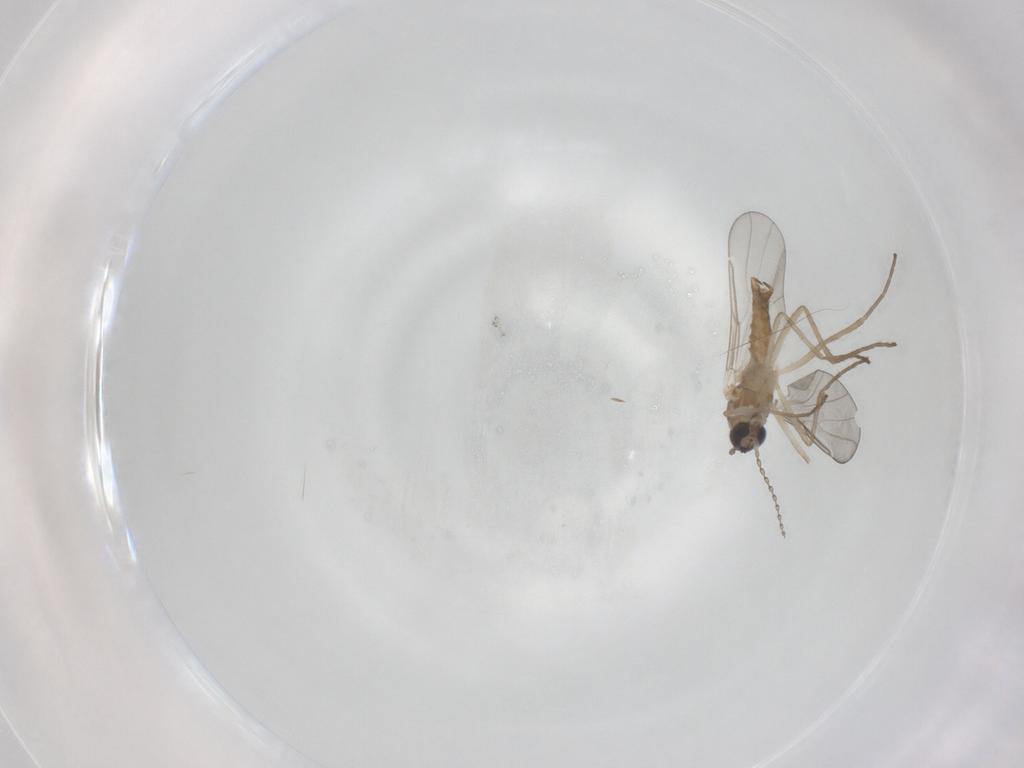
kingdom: Animalia
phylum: Arthropoda
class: Insecta
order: Diptera
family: Cecidomyiidae
